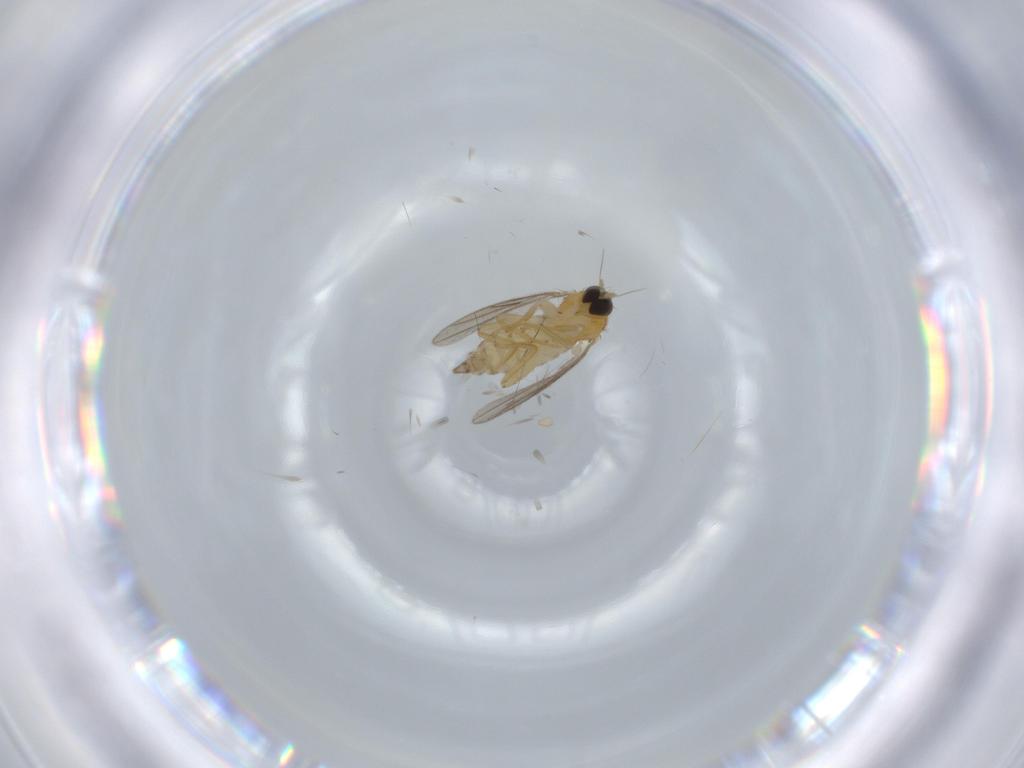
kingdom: Animalia
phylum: Arthropoda
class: Insecta
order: Diptera
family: Hybotidae
